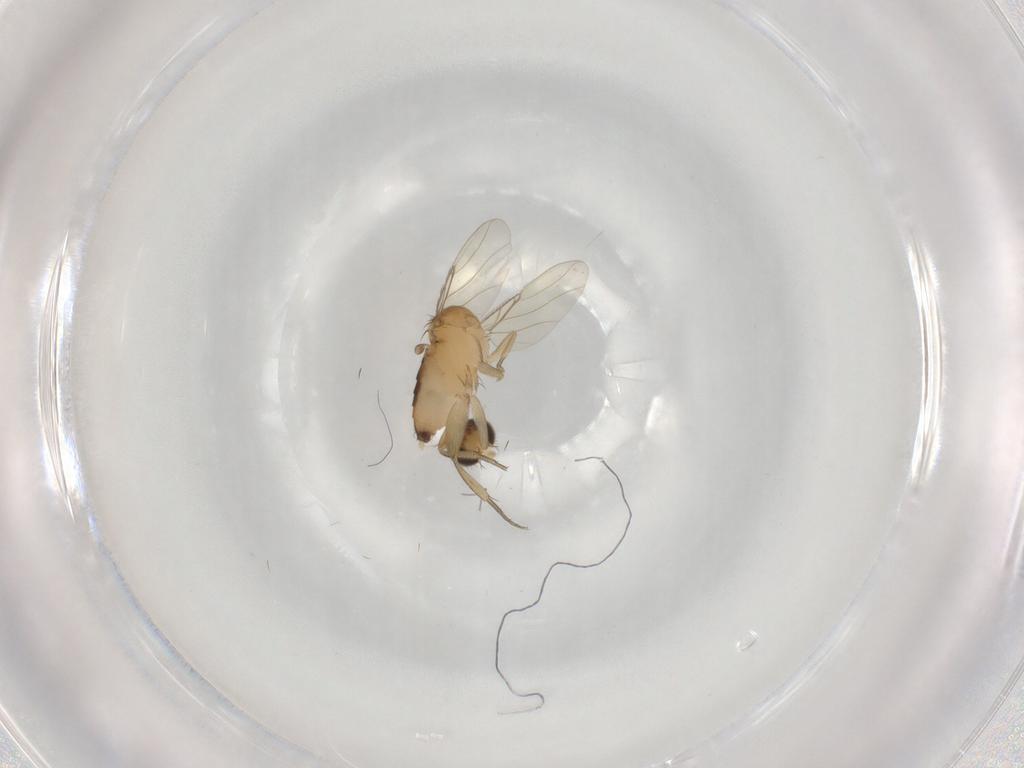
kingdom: Animalia
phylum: Arthropoda
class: Insecta
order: Diptera
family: Phoridae
